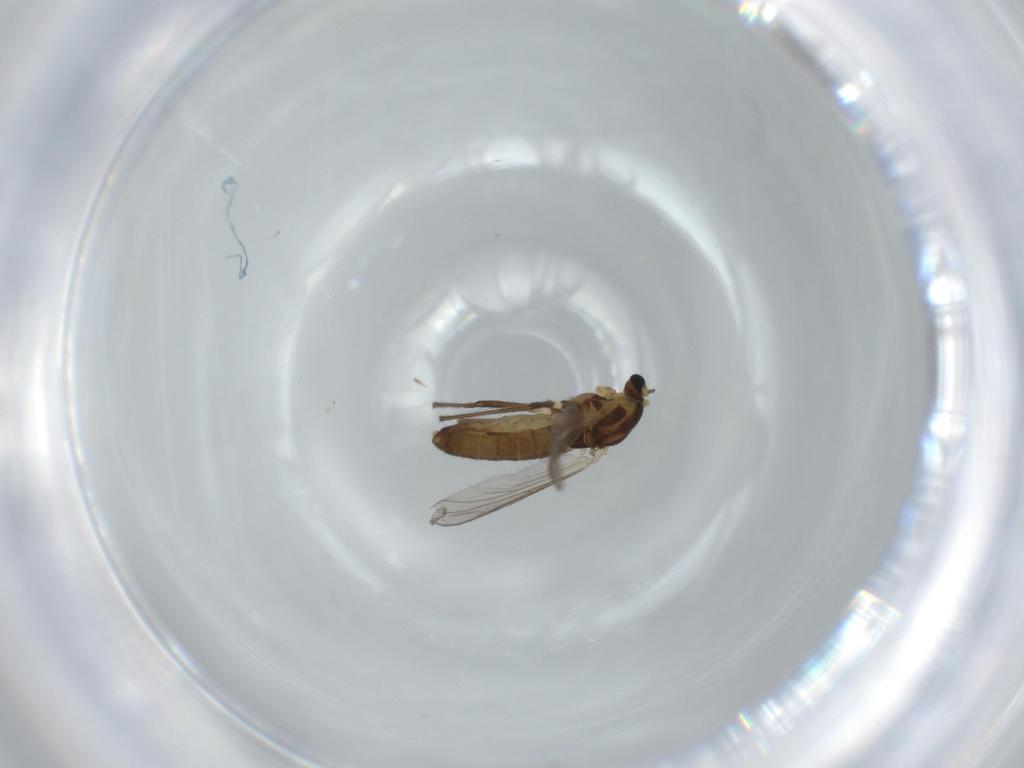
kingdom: Animalia
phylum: Arthropoda
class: Insecta
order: Diptera
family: Chironomidae
